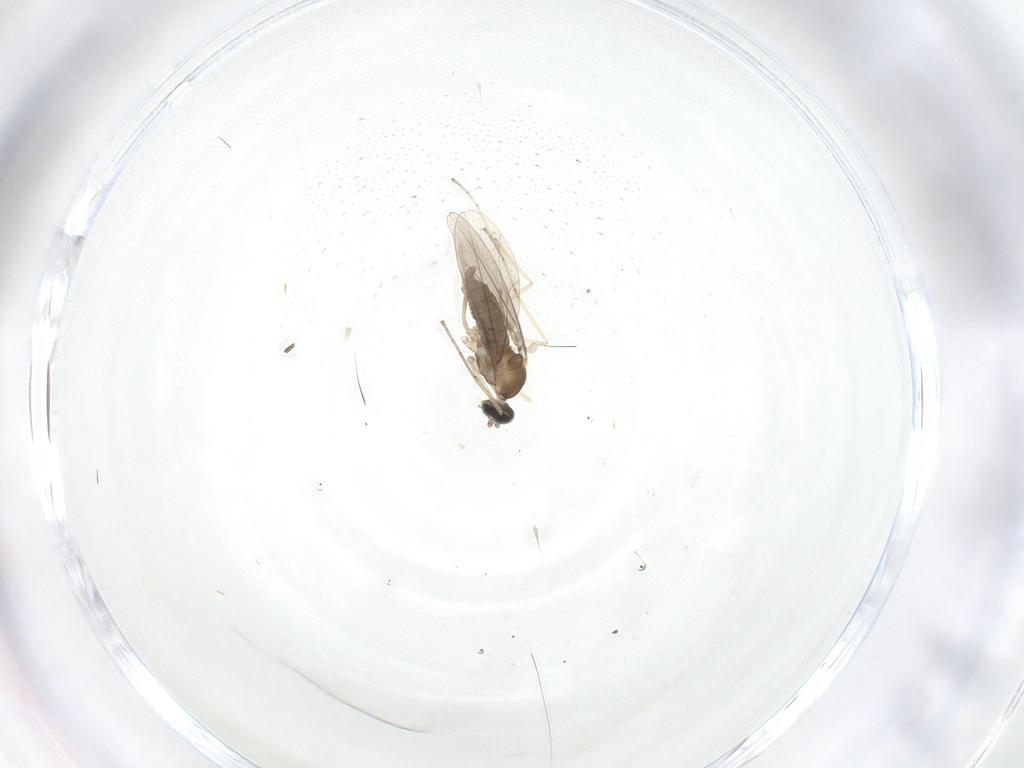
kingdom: Animalia
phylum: Arthropoda
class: Insecta
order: Diptera
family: Cecidomyiidae
